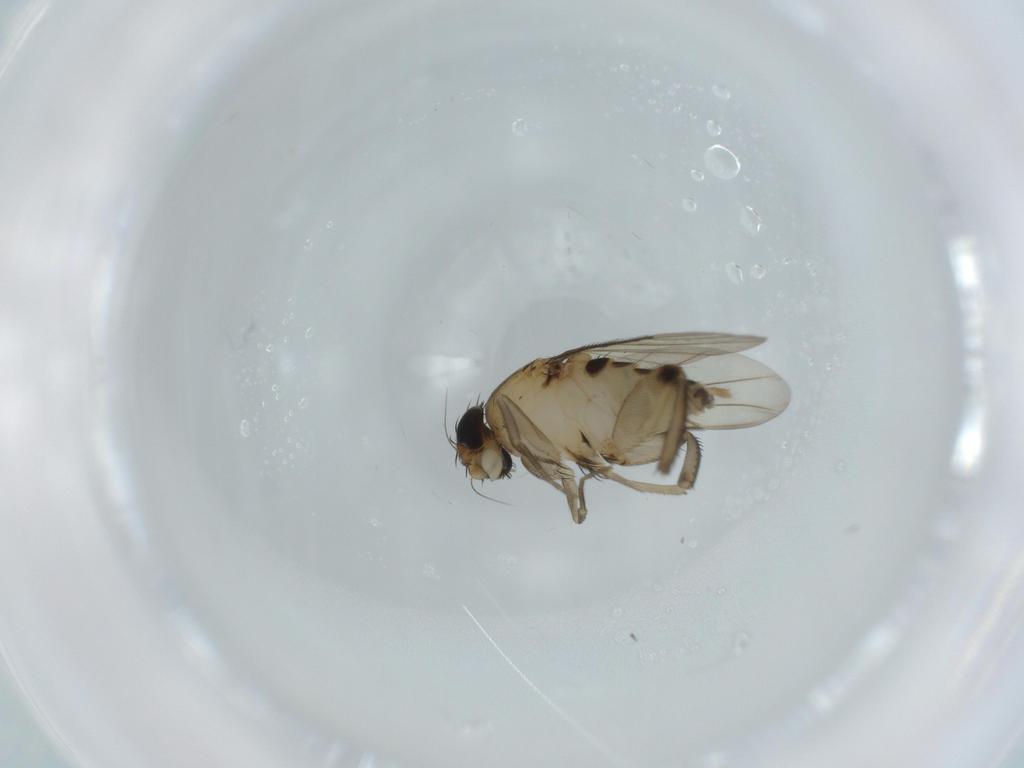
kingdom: Animalia
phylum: Arthropoda
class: Insecta
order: Diptera
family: Phoridae
